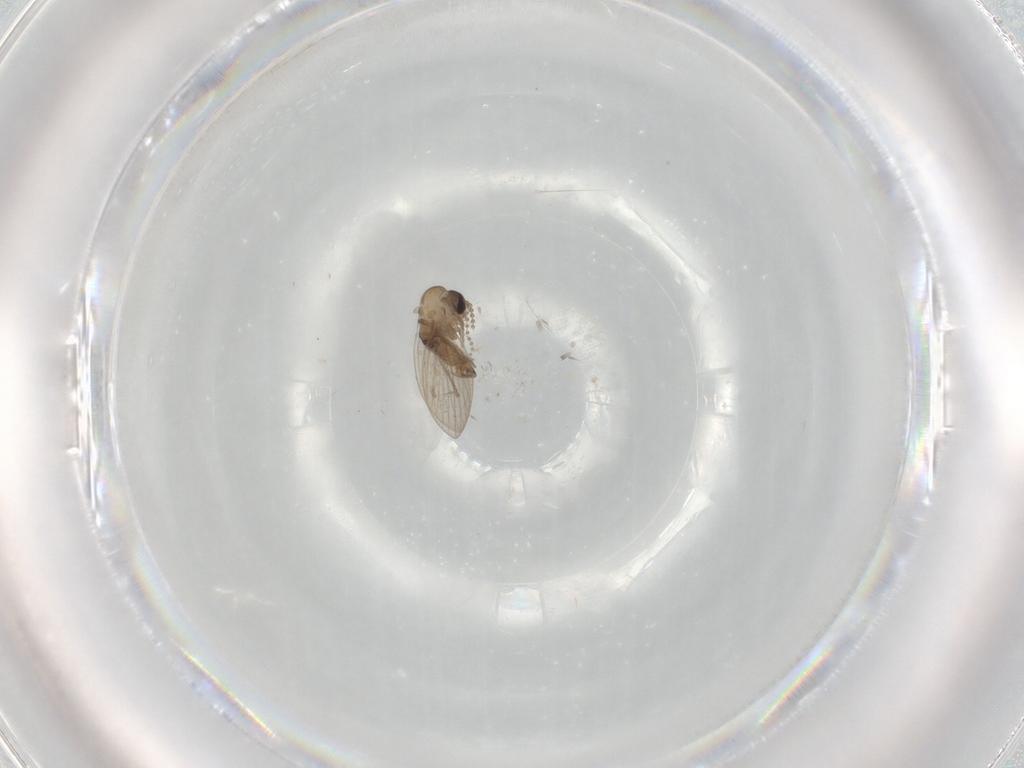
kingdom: Animalia
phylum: Arthropoda
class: Insecta
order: Diptera
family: Psychodidae
